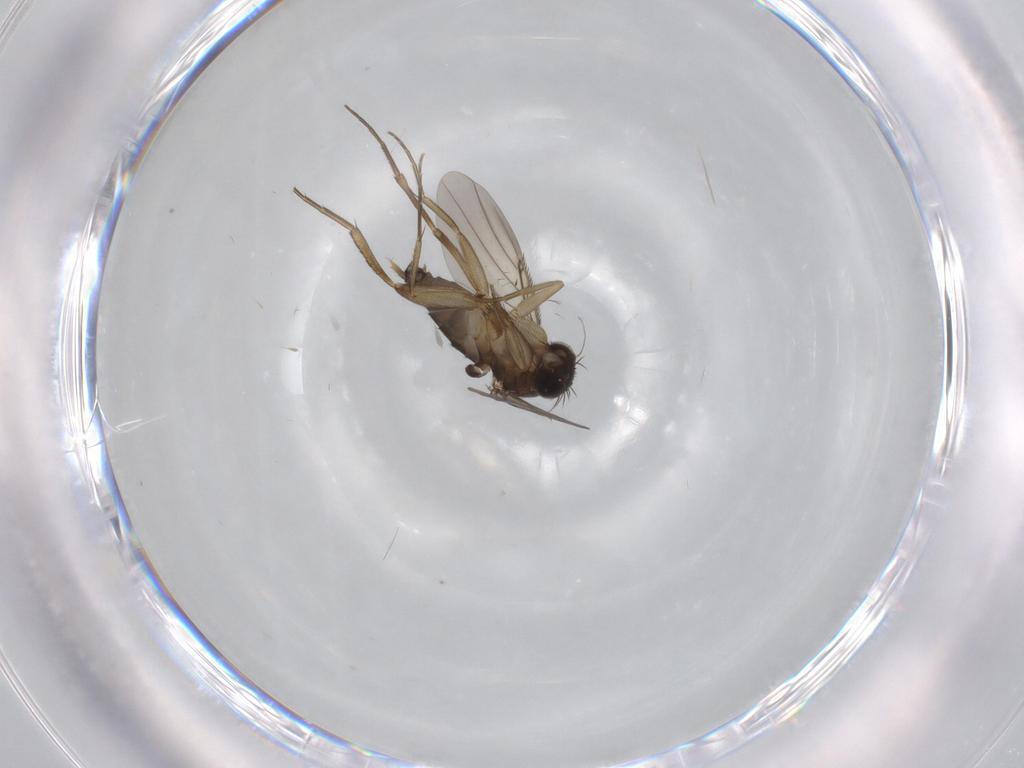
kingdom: Animalia
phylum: Arthropoda
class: Insecta
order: Diptera
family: Phoridae
